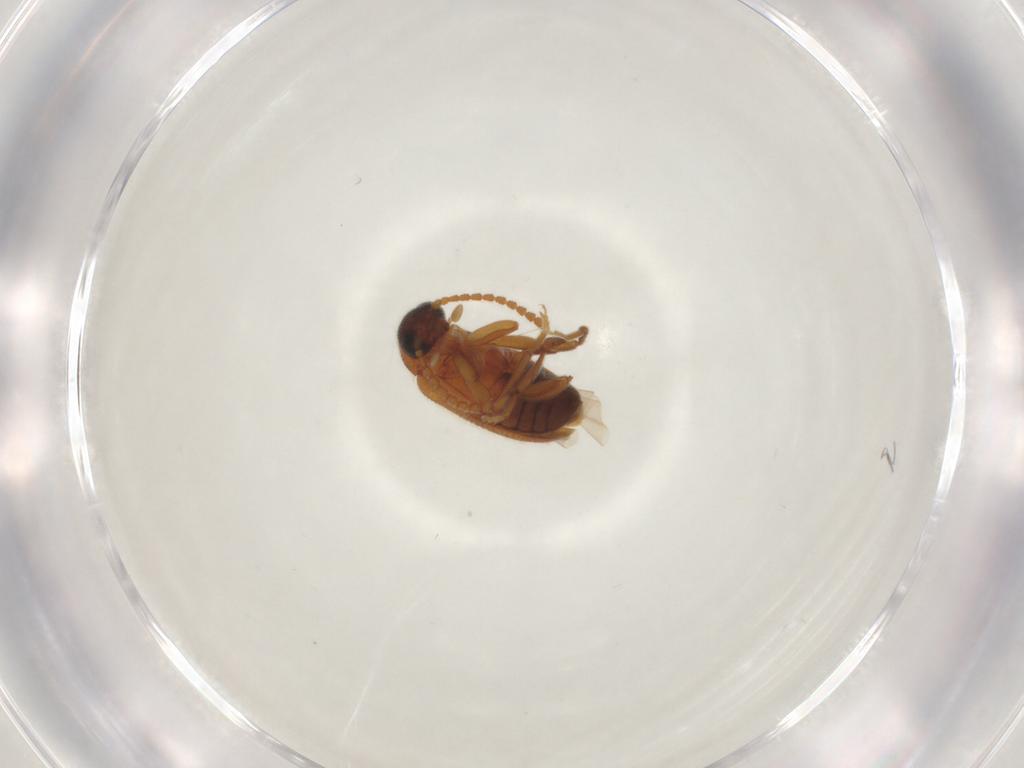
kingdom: Animalia
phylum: Arthropoda
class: Insecta
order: Coleoptera
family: Aderidae
